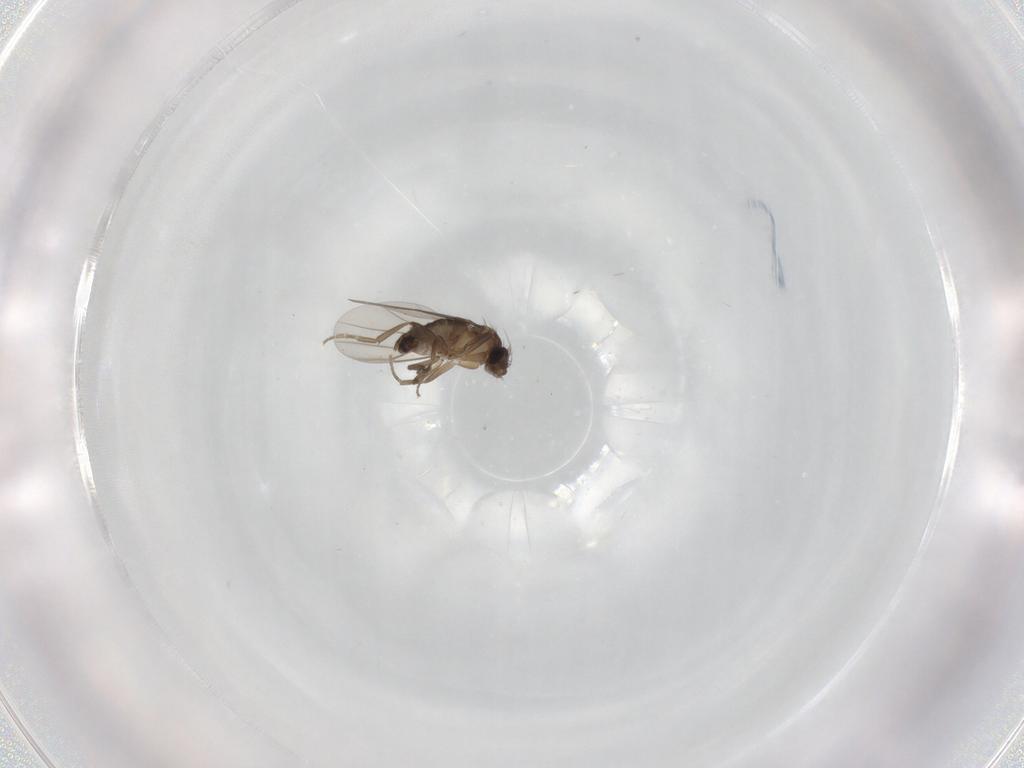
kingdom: Animalia
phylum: Arthropoda
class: Insecta
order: Diptera
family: Phoridae
